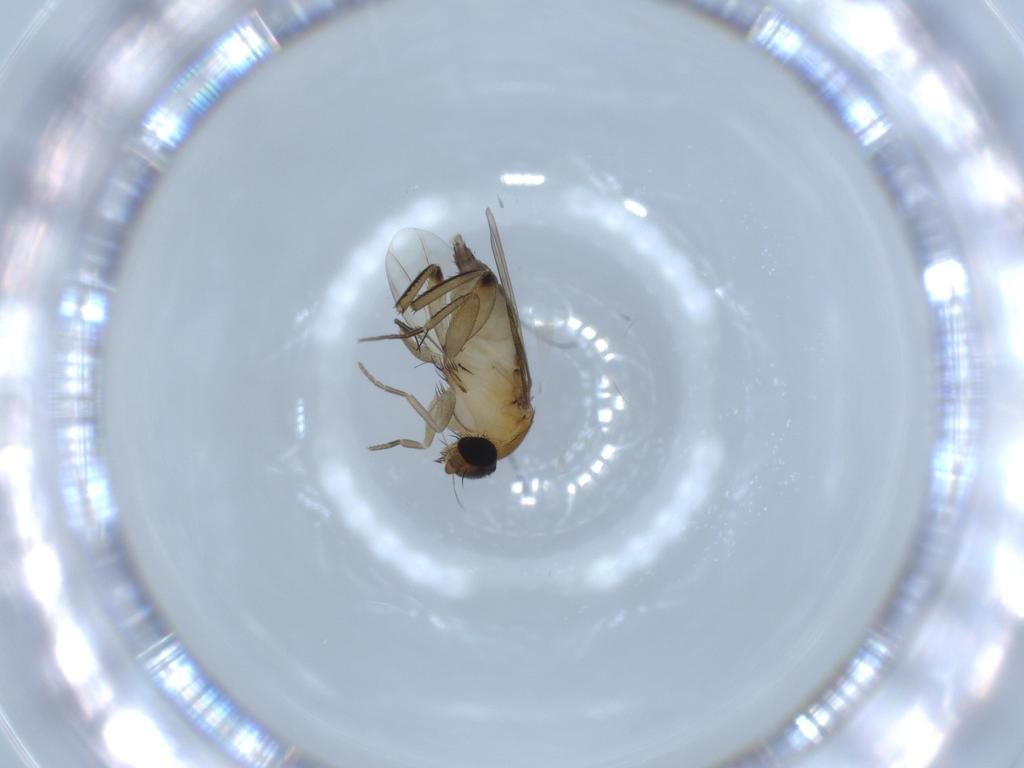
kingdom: Animalia
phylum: Arthropoda
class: Insecta
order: Diptera
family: Phoridae
